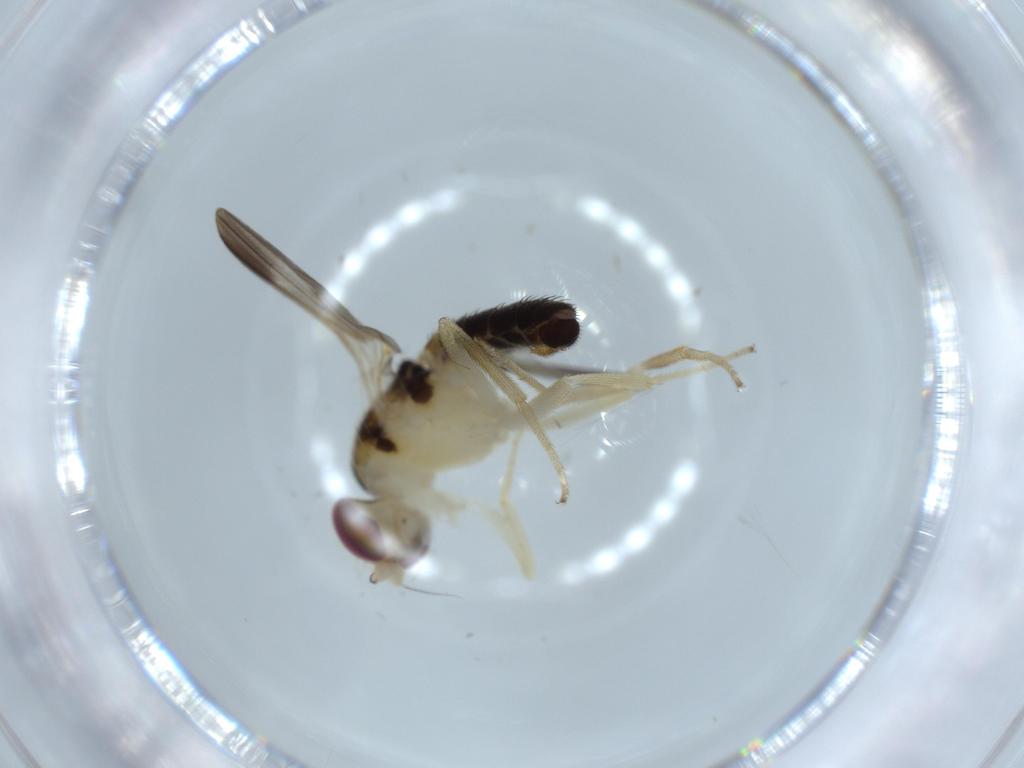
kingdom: Animalia
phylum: Arthropoda
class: Insecta
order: Diptera
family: Clusiidae
